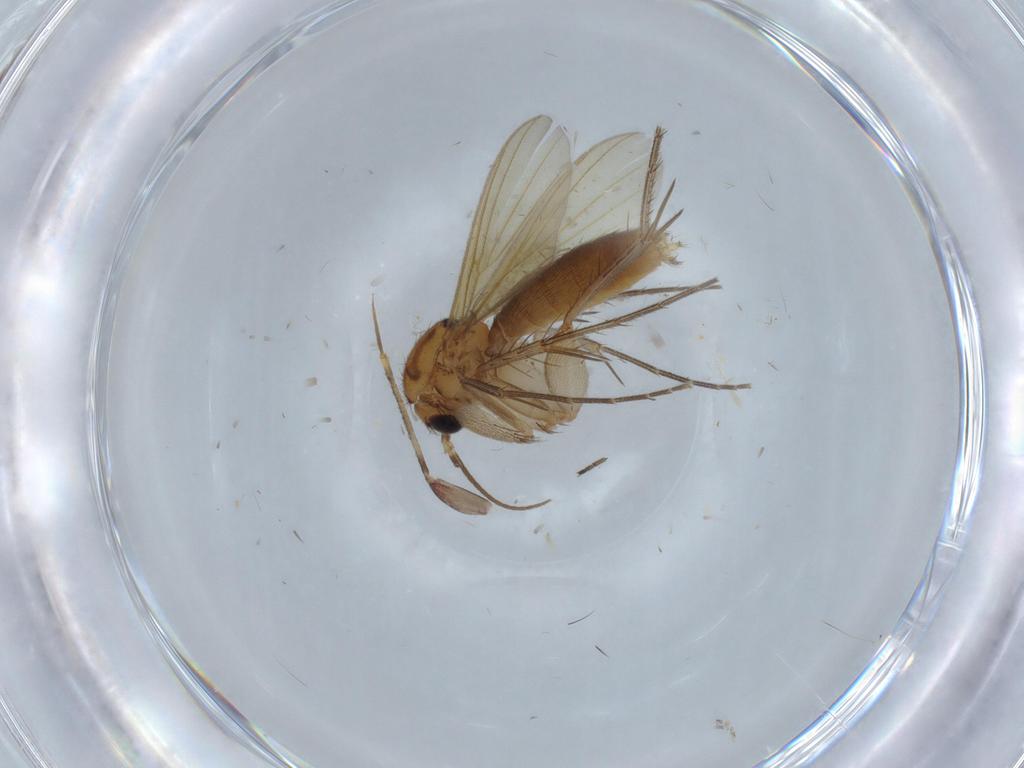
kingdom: Animalia
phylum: Arthropoda
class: Insecta
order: Diptera
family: Mycetophilidae
